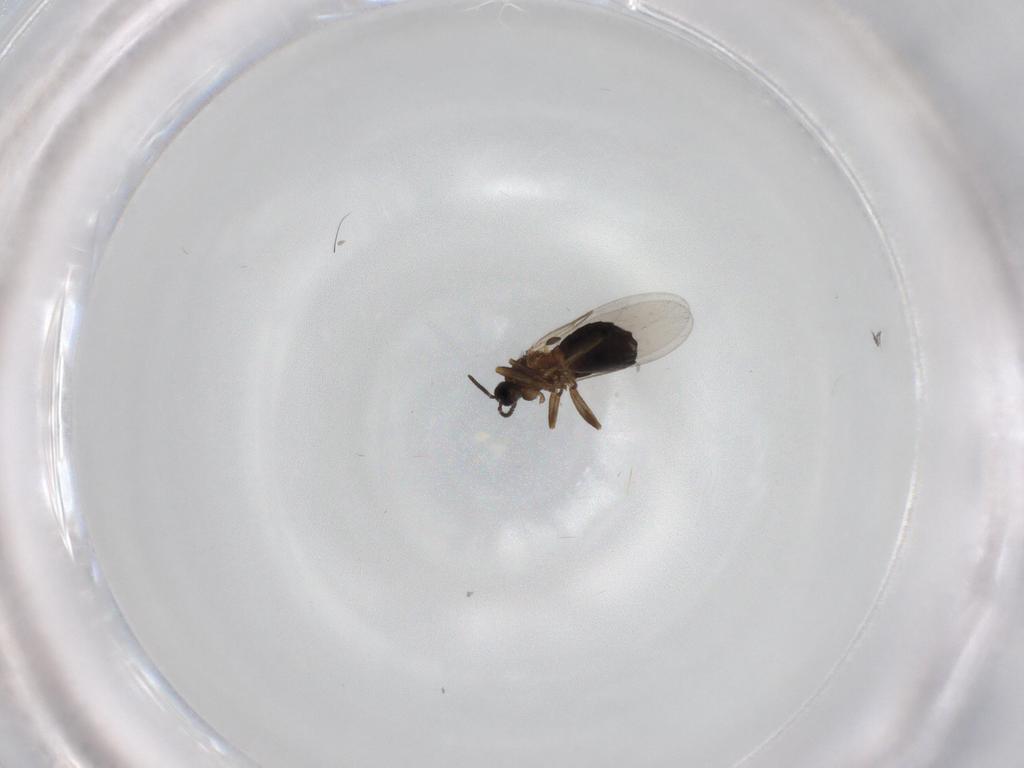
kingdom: Animalia
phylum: Arthropoda
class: Insecta
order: Diptera
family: Scatopsidae
